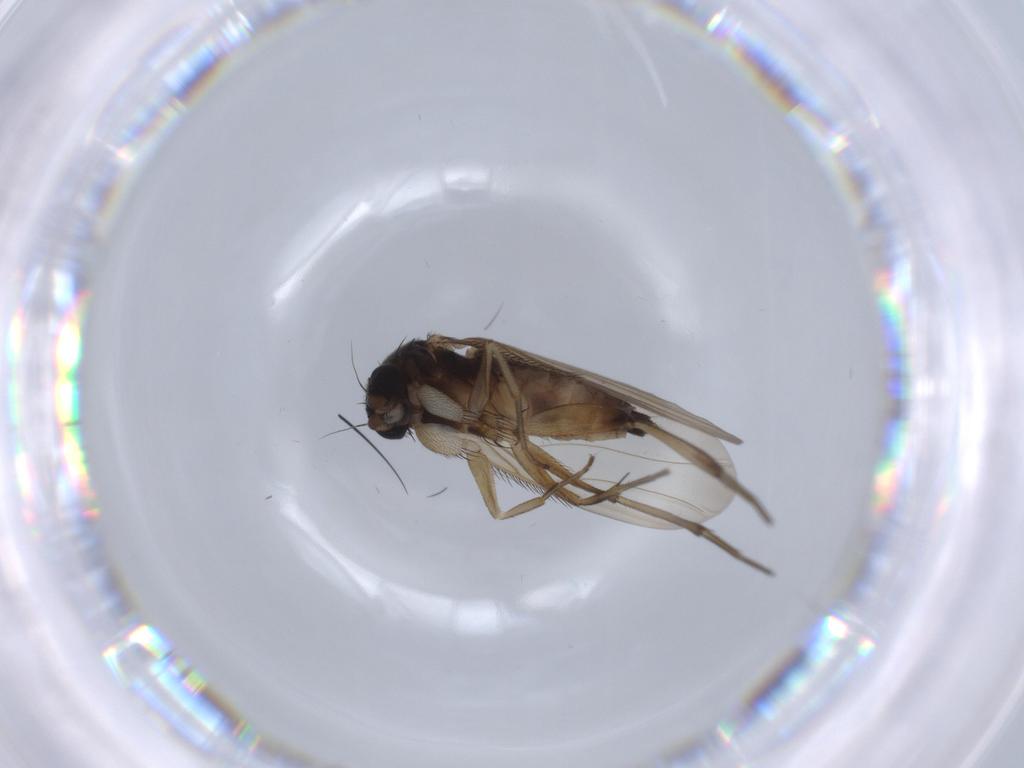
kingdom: Animalia
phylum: Arthropoda
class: Insecta
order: Diptera
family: Phoridae
